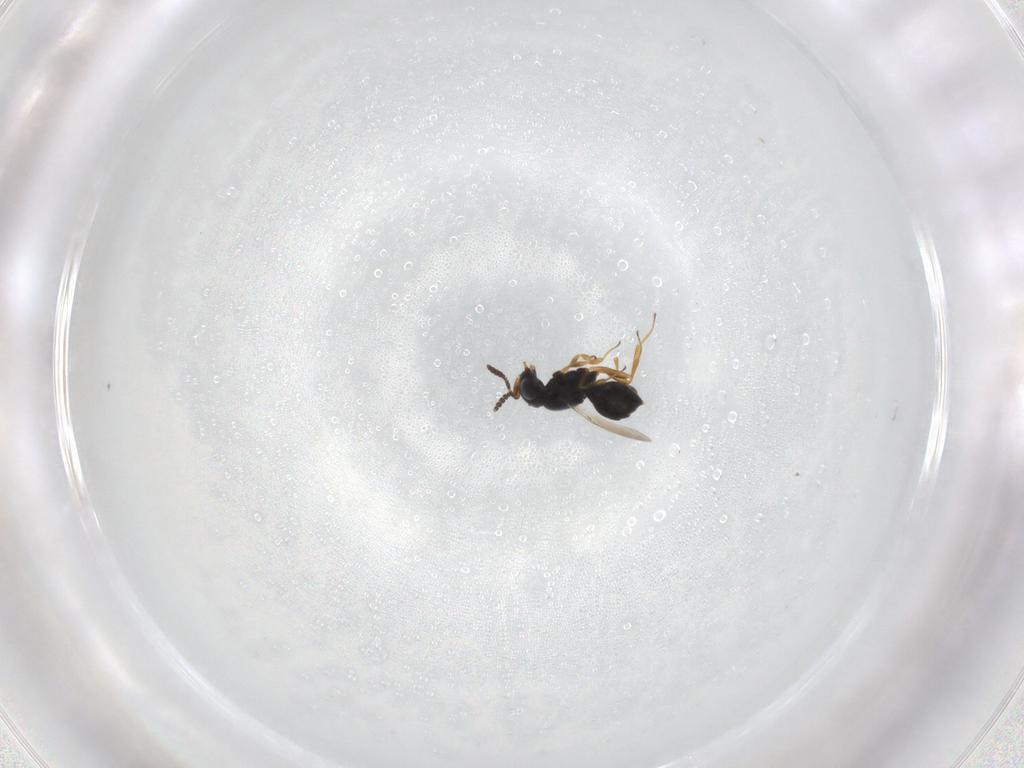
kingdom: Animalia
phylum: Arthropoda
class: Insecta
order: Hymenoptera
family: Scelionidae
